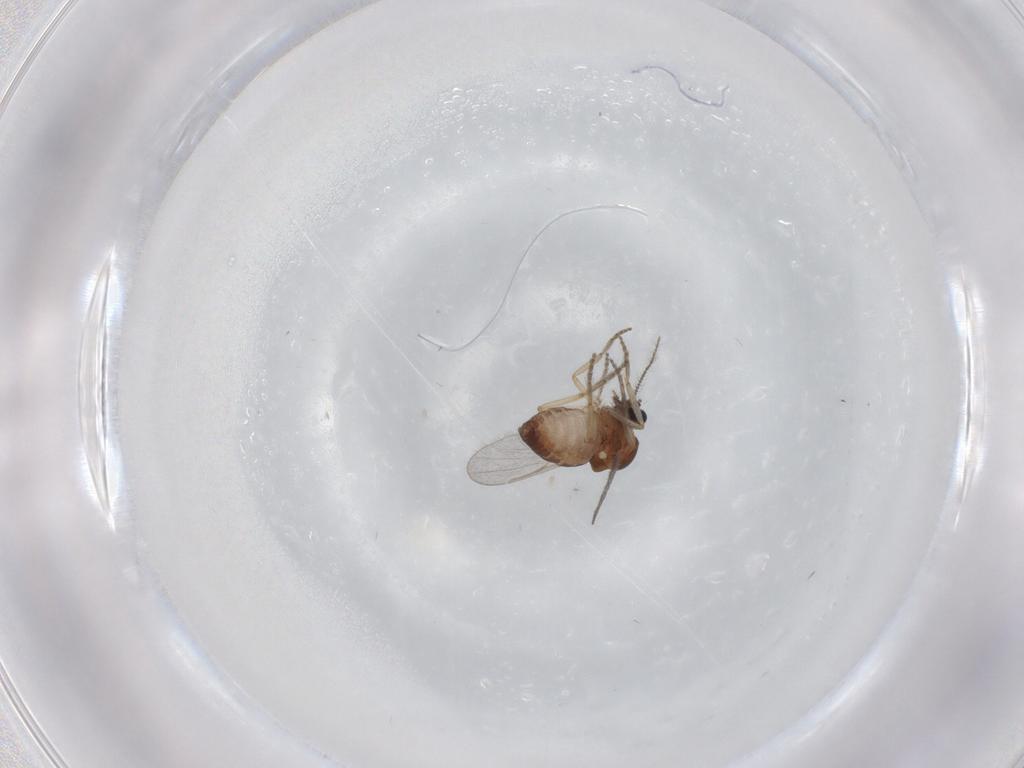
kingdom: Animalia
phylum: Arthropoda
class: Insecta
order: Diptera
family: Ceratopogonidae
